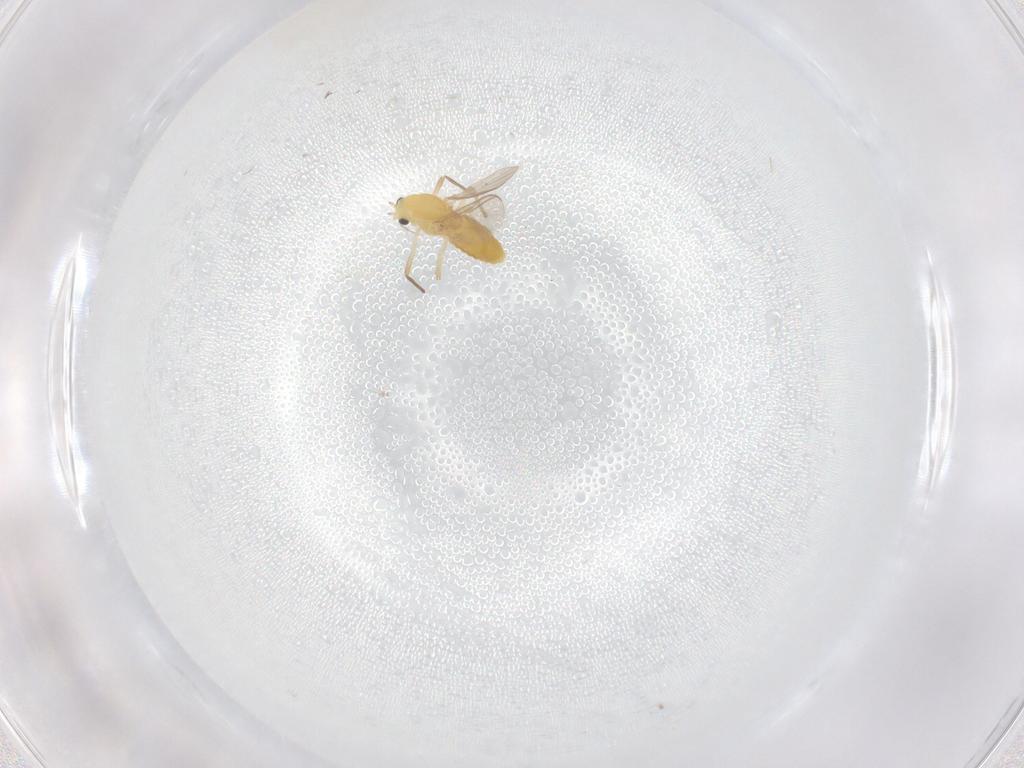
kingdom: Animalia
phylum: Arthropoda
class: Insecta
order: Diptera
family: Chironomidae
